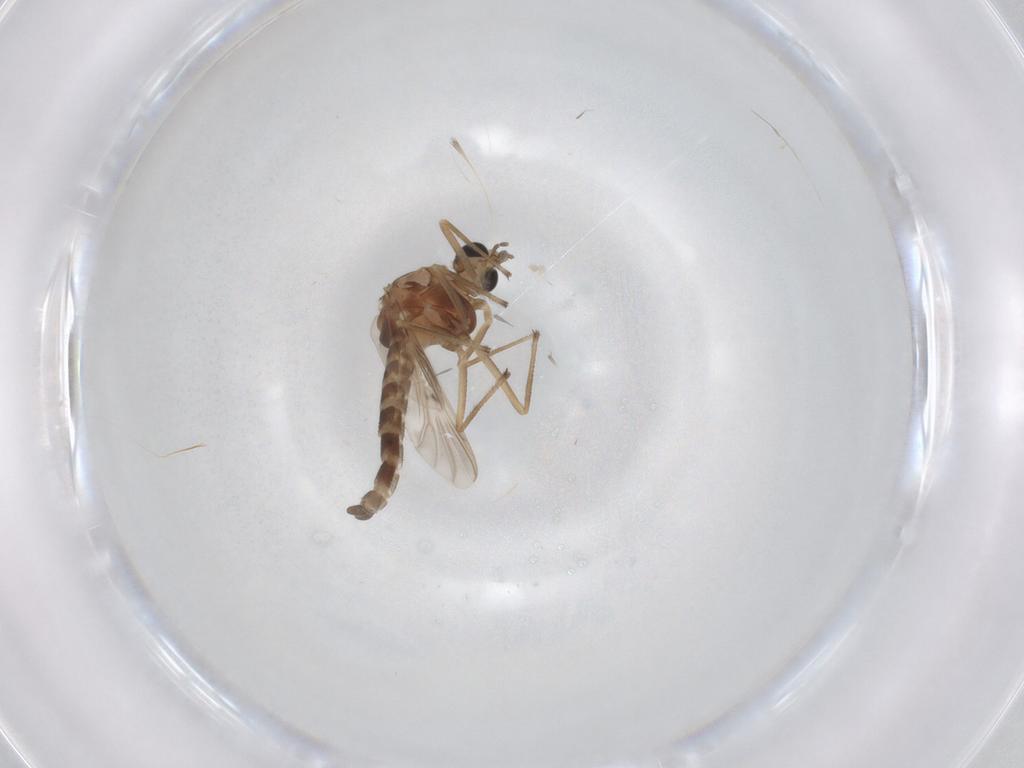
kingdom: Animalia
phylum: Arthropoda
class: Insecta
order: Diptera
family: Chironomidae
